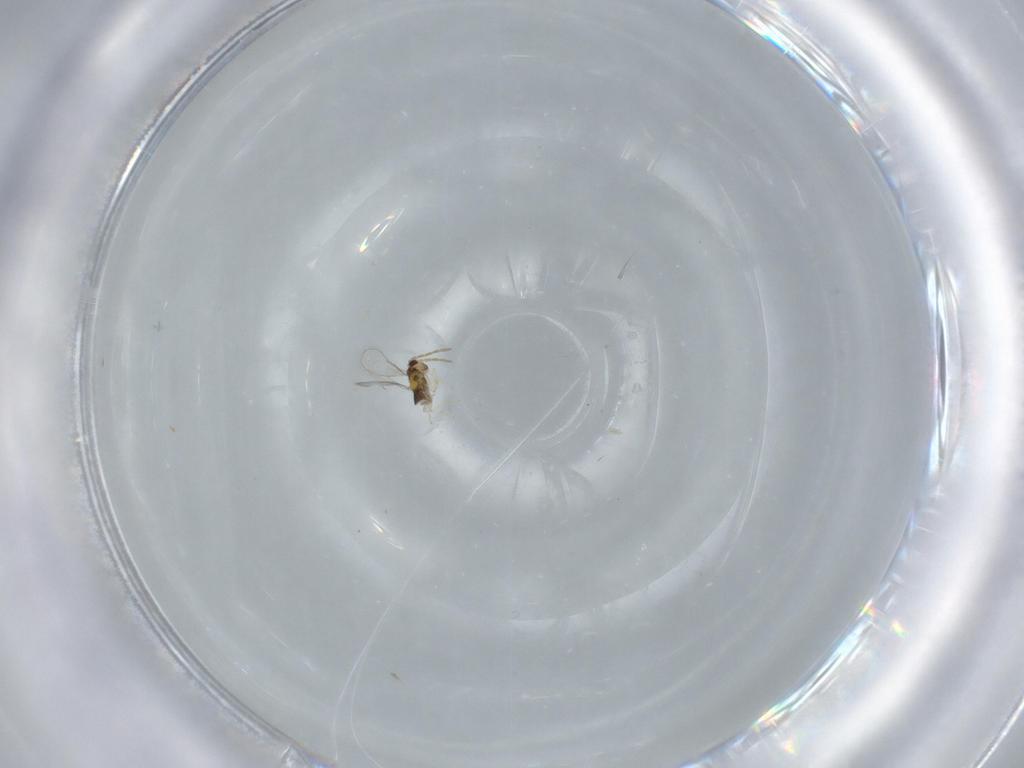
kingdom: Animalia
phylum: Arthropoda
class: Insecta
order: Hymenoptera
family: Aphelinidae
